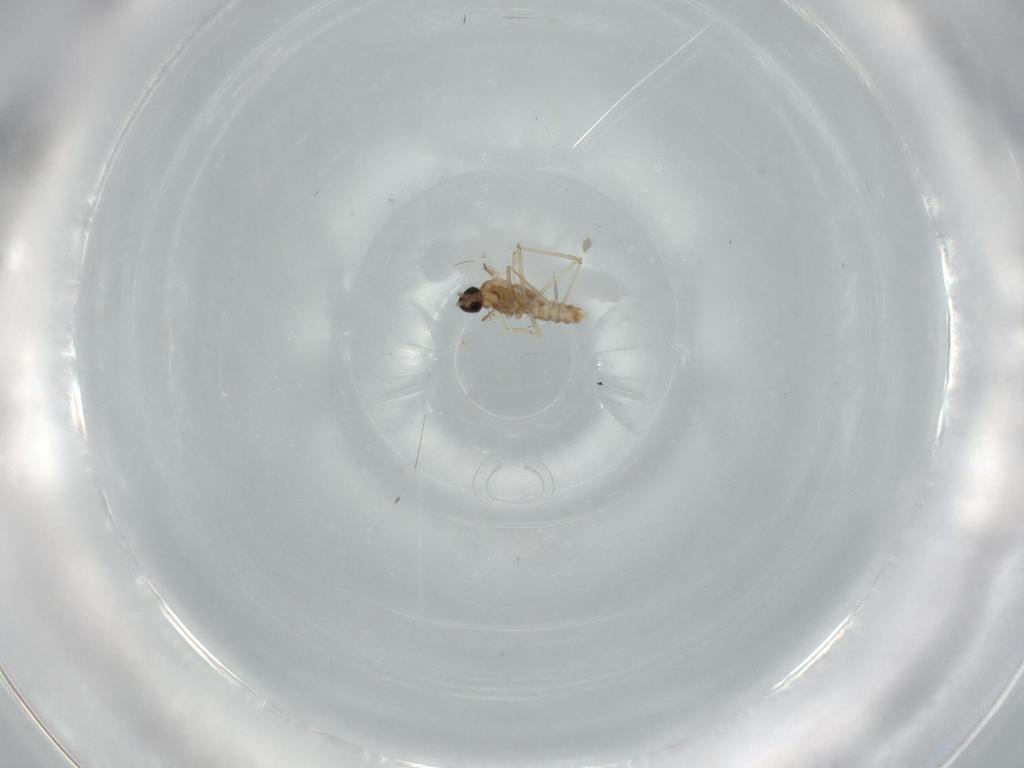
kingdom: Animalia
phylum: Arthropoda
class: Insecta
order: Diptera
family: Cecidomyiidae
